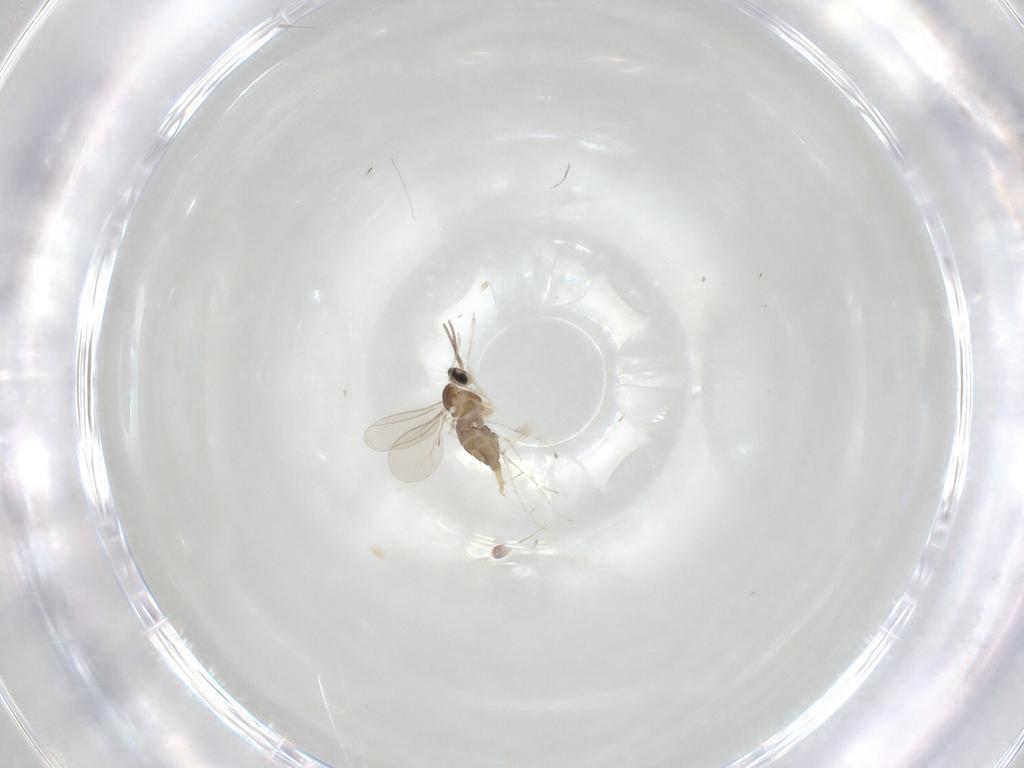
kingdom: Animalia
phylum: Arthropoda
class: Insecta
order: Diptera
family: Cecidomyiidae
